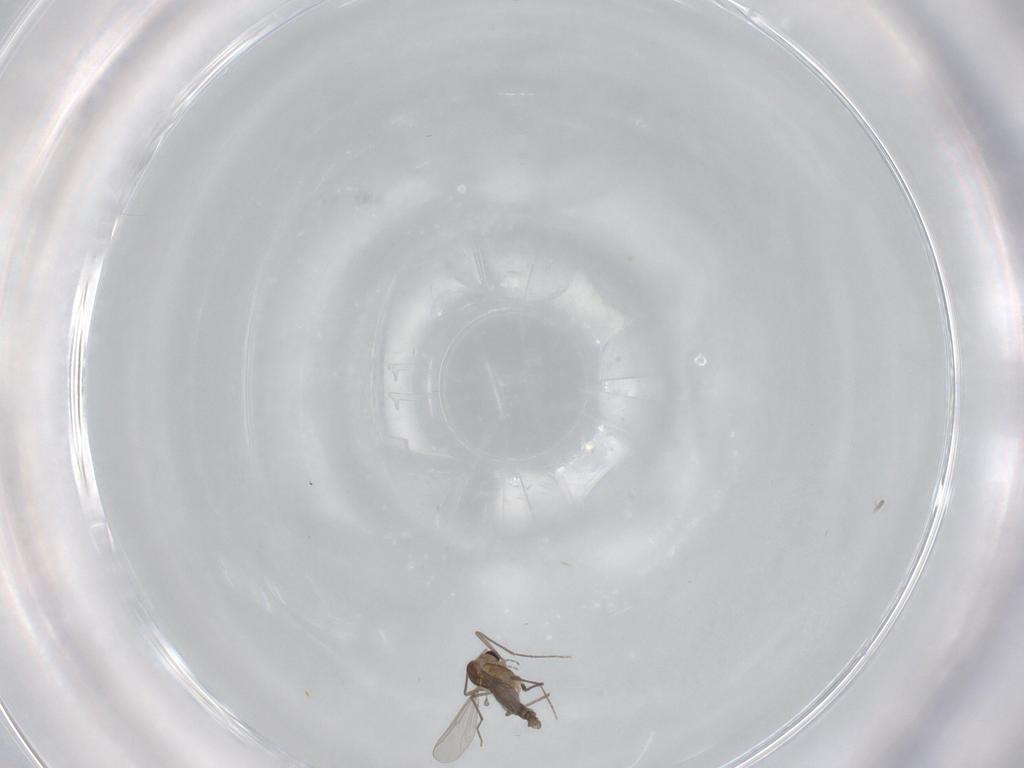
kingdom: Animalia
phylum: Arthropoda
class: Insecta
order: Diptera
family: Chironomidae
